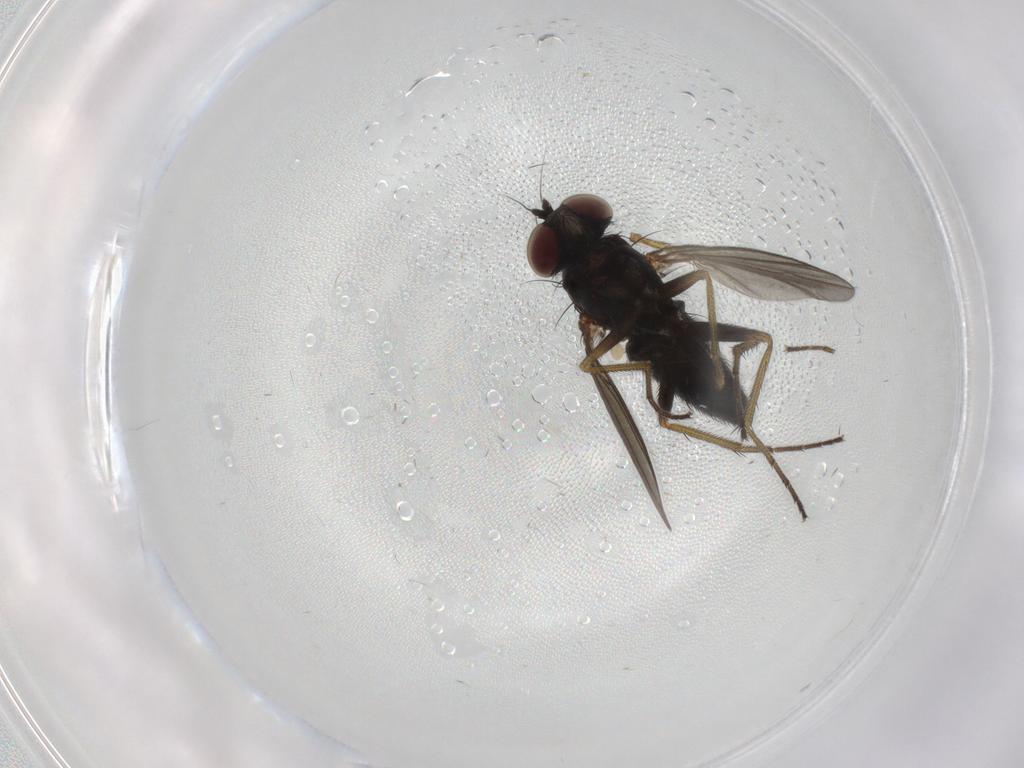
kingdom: Animalia
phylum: Arthropoda
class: Insecta
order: Diptera
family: Dolichopodidae
